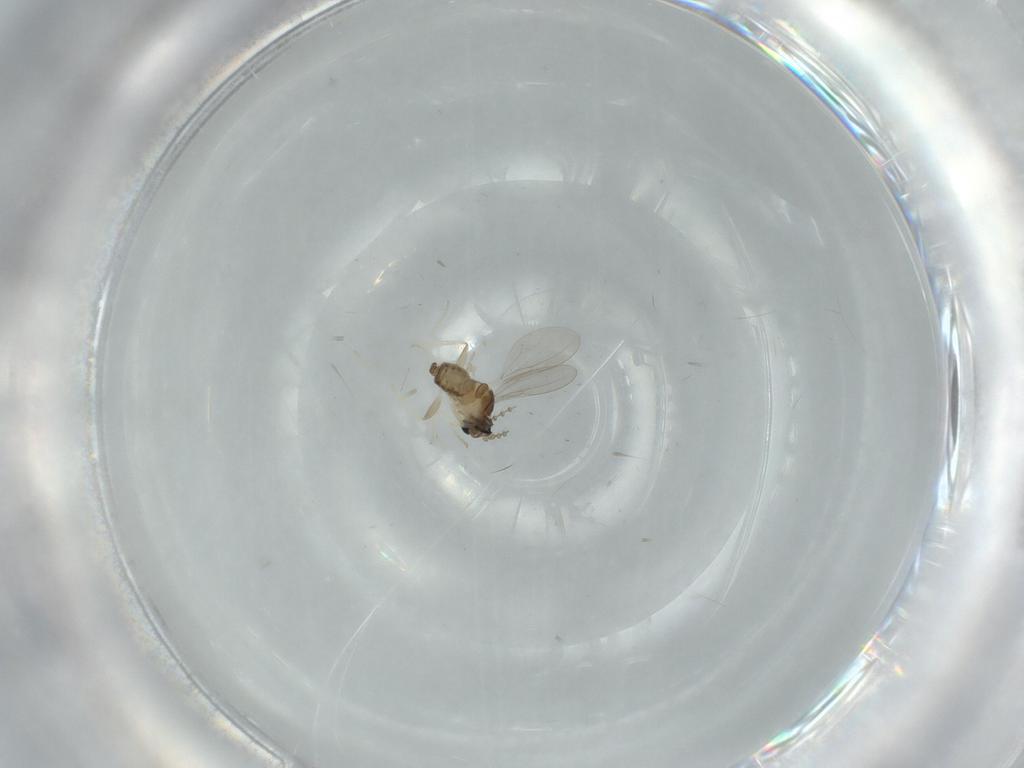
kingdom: Animalia
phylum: Arthropoda
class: Insecta
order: Diptera
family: Cecidomyiidae
